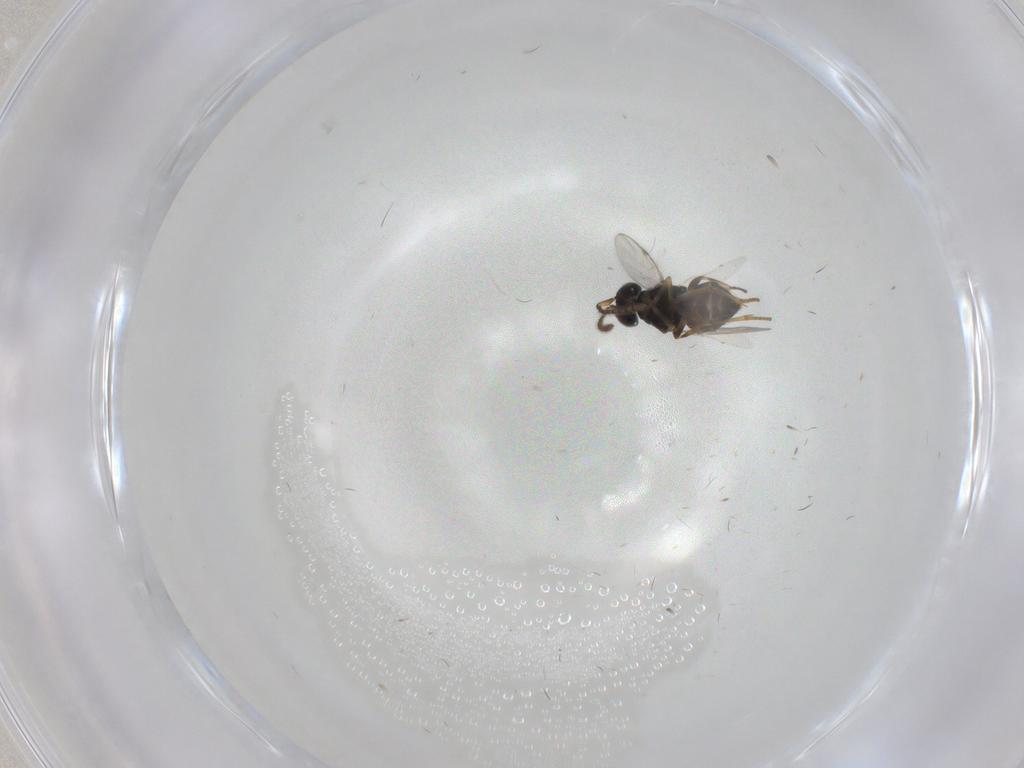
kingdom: Animalia
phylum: Arthropoda
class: Insecta
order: Hymenoptera
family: Encyrtidae
